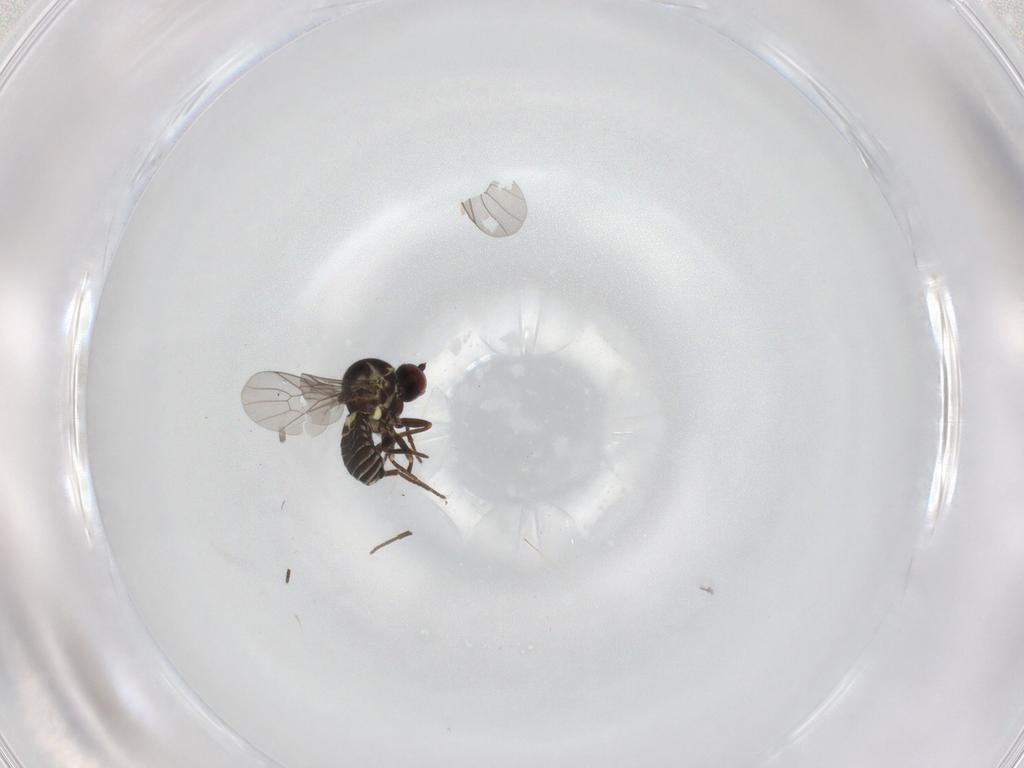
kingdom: Animalia
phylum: Arthropoda
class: Insecta
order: Diptera
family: Mythicomyiidae
